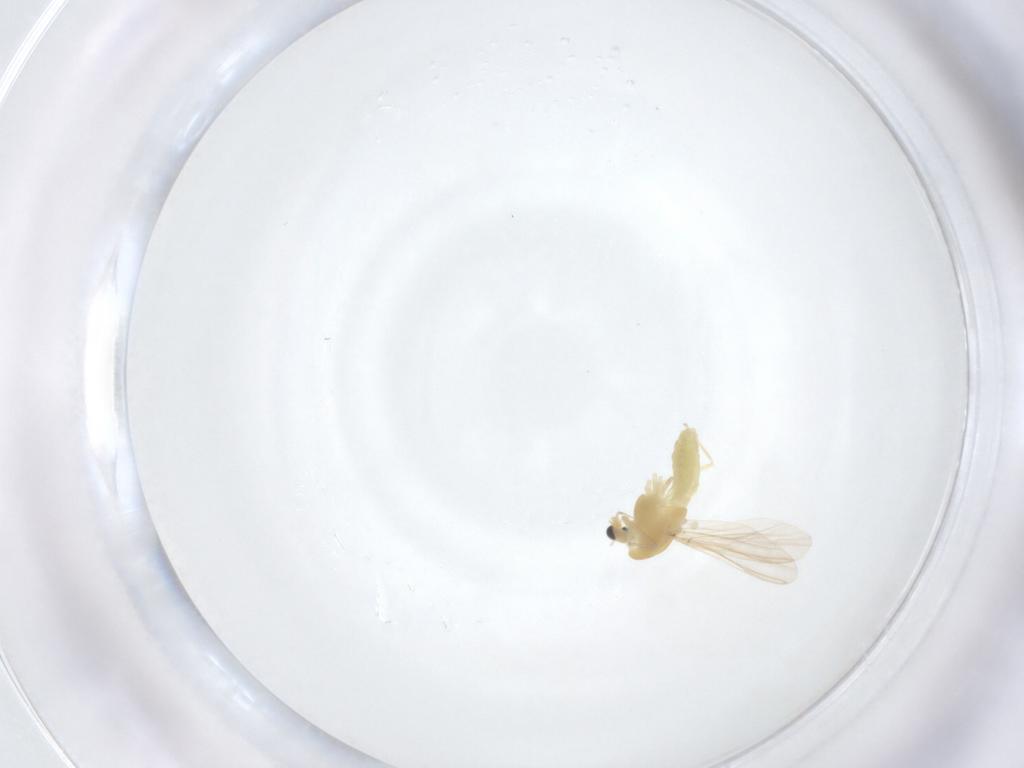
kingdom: Animalia
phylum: Arthropoda
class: Insecta
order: Diptera
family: Chironomidae
